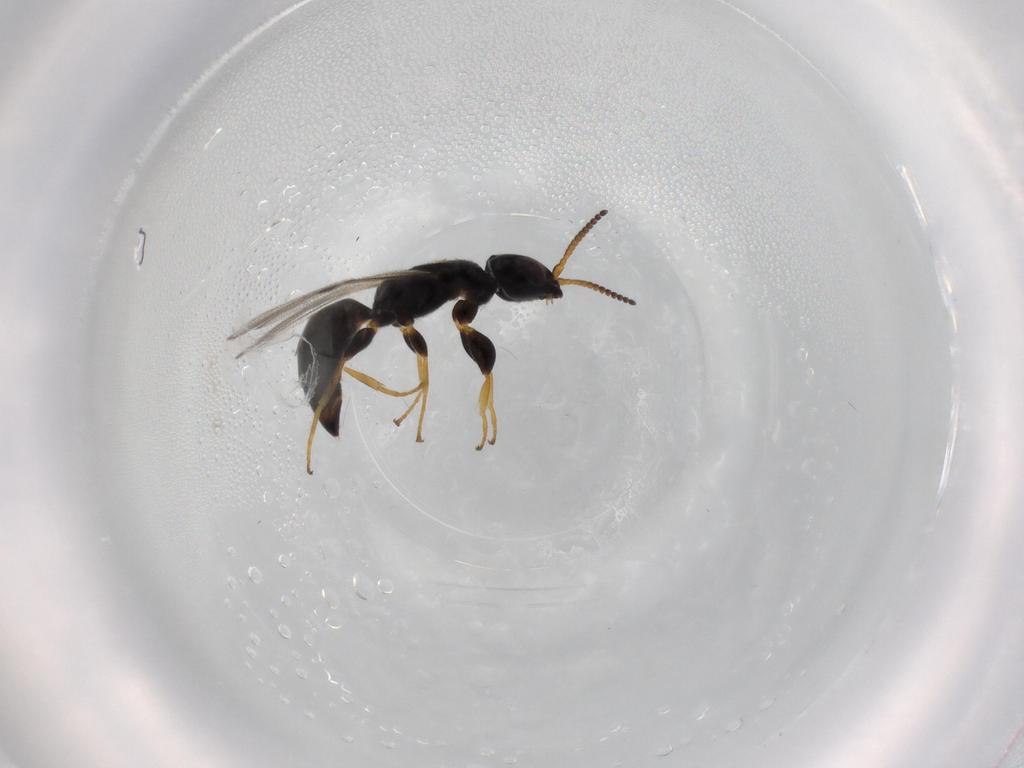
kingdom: Animalia
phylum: Arthropoda
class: Insecta
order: Hymenoptera
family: Bethylidae
